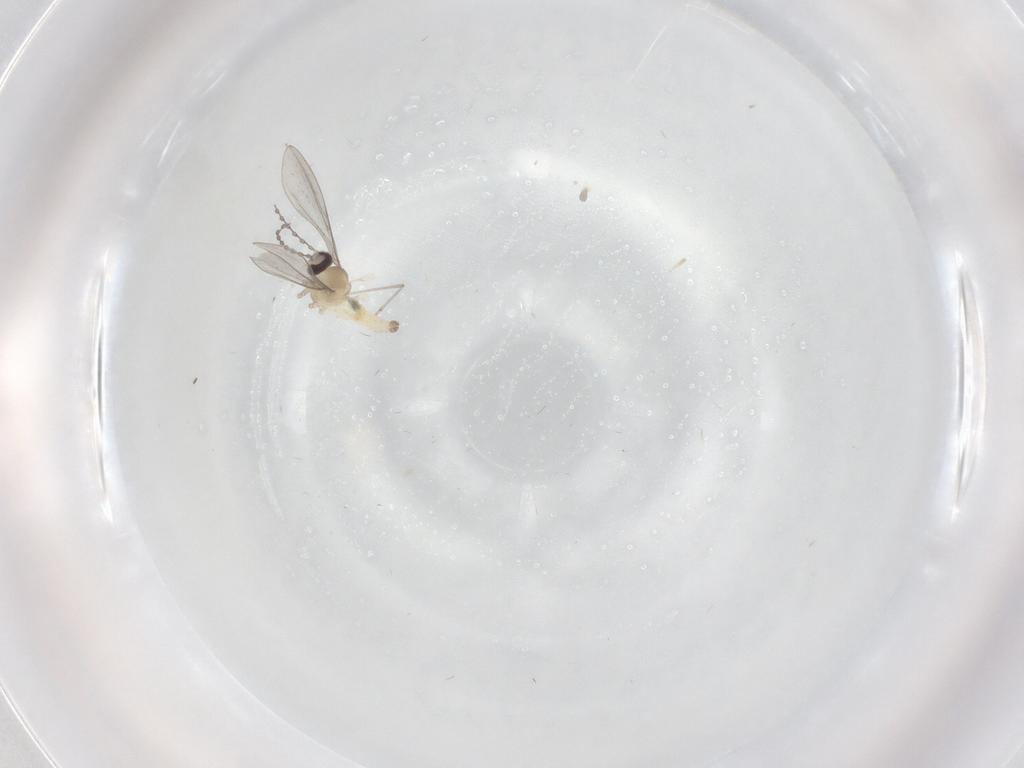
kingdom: Animalia
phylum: Arthropoda
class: Insecta
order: Diptera
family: Cecidomyiidae
